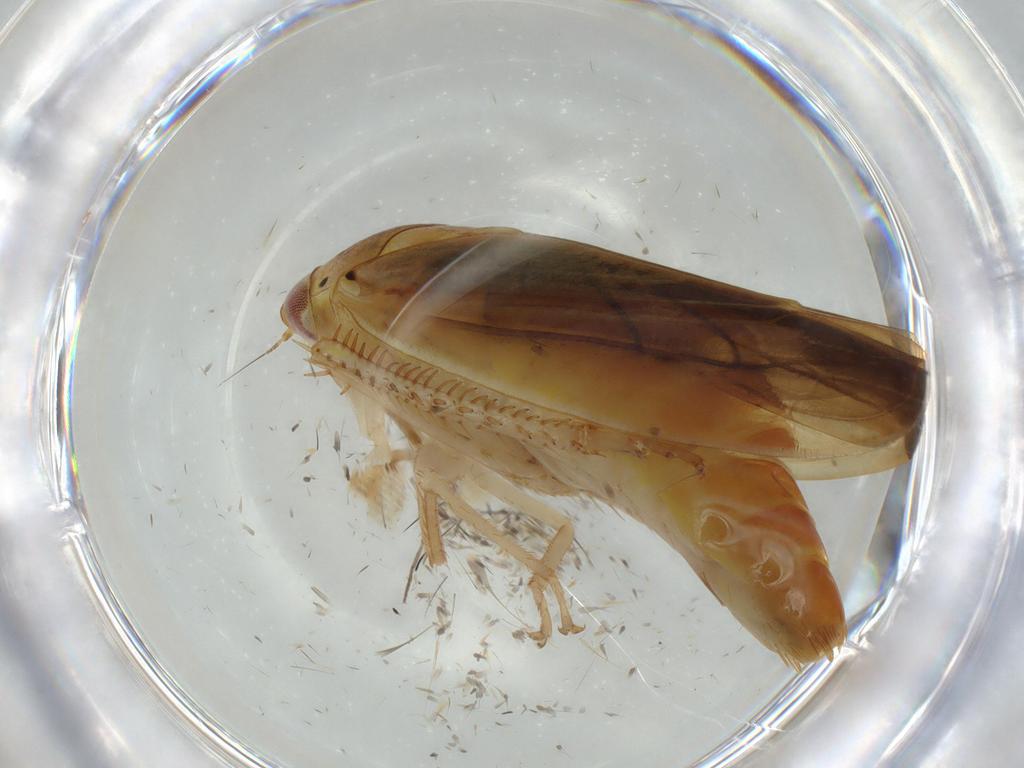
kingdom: Animalia
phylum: Arthropoda
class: Insecta
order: Hemiptera
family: Cicadellidae
